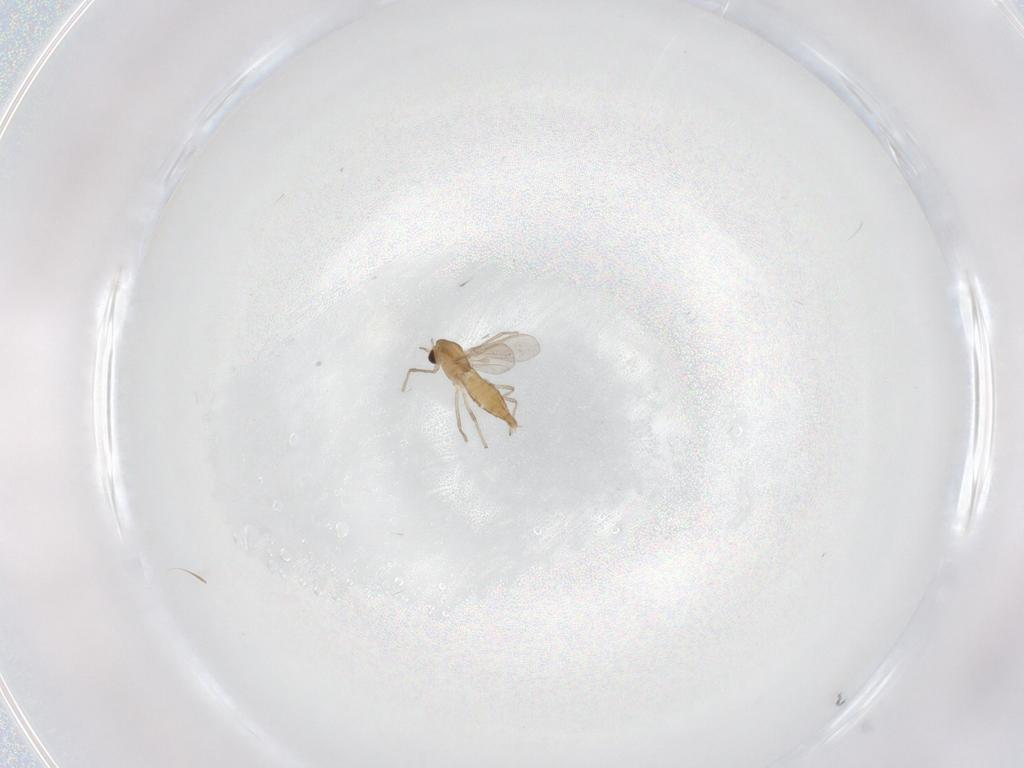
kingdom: Animalia
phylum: Arthropoda
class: Insecta
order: Diptera
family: Chironomidae
